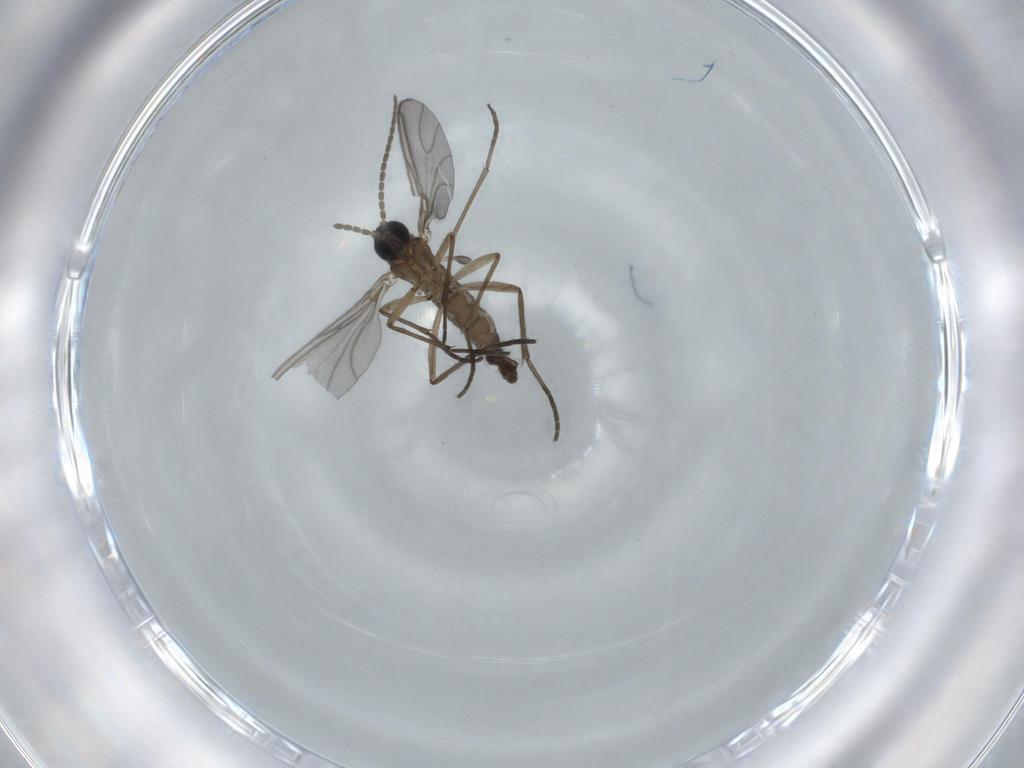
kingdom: Animalia
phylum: Arthropoda
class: Insecta
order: Diptera
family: Sciaridae
